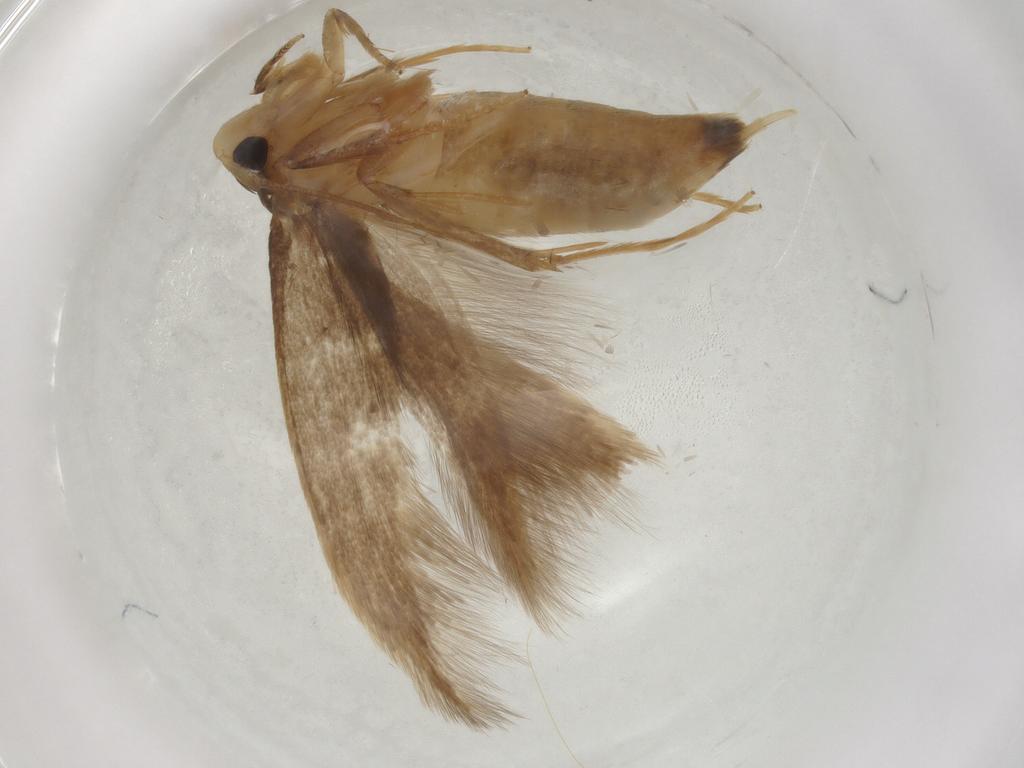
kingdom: Animalia
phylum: Arthropoda
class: Insecta
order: Lepidoptera
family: Tineidae
